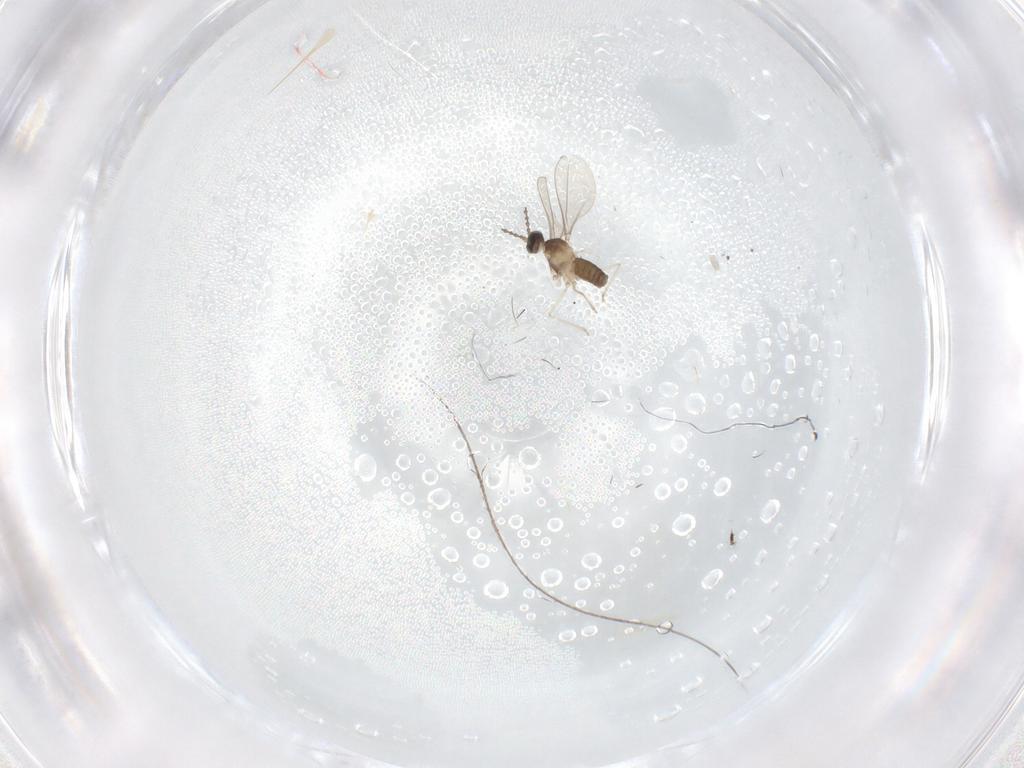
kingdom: Animalia
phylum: Arthropoda
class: Insecta
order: Diptera
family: Cecidomyiidae
